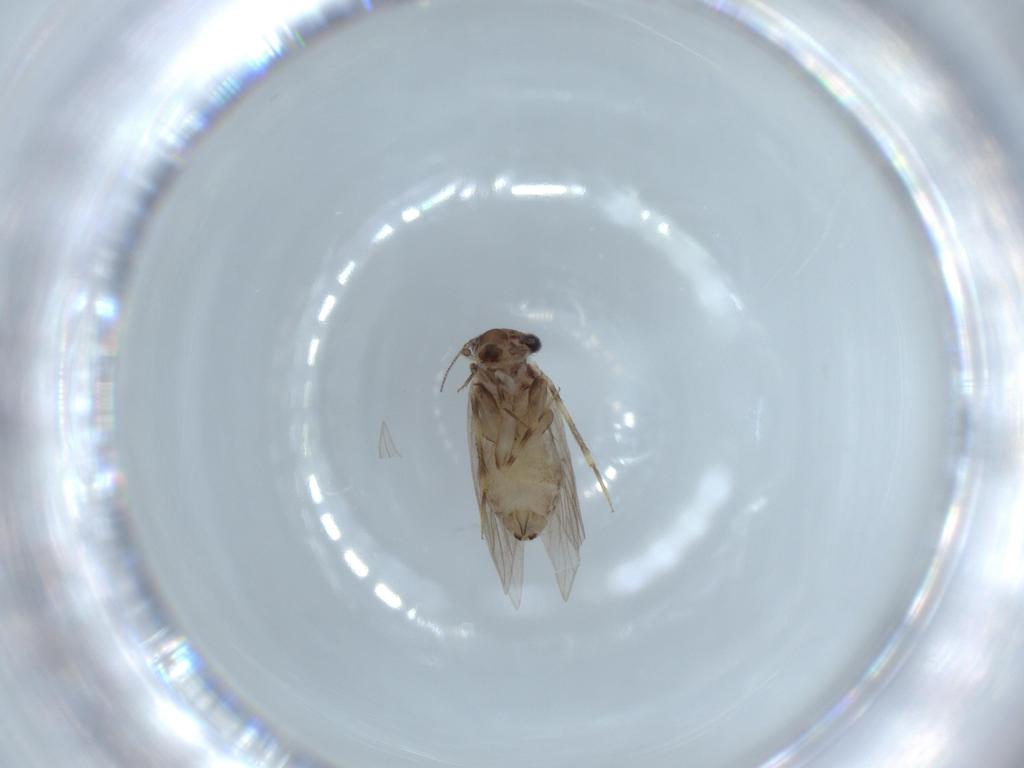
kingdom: Animalia
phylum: Arthropoda
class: Insecta
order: Psocodea
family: Lepidopsocidae
